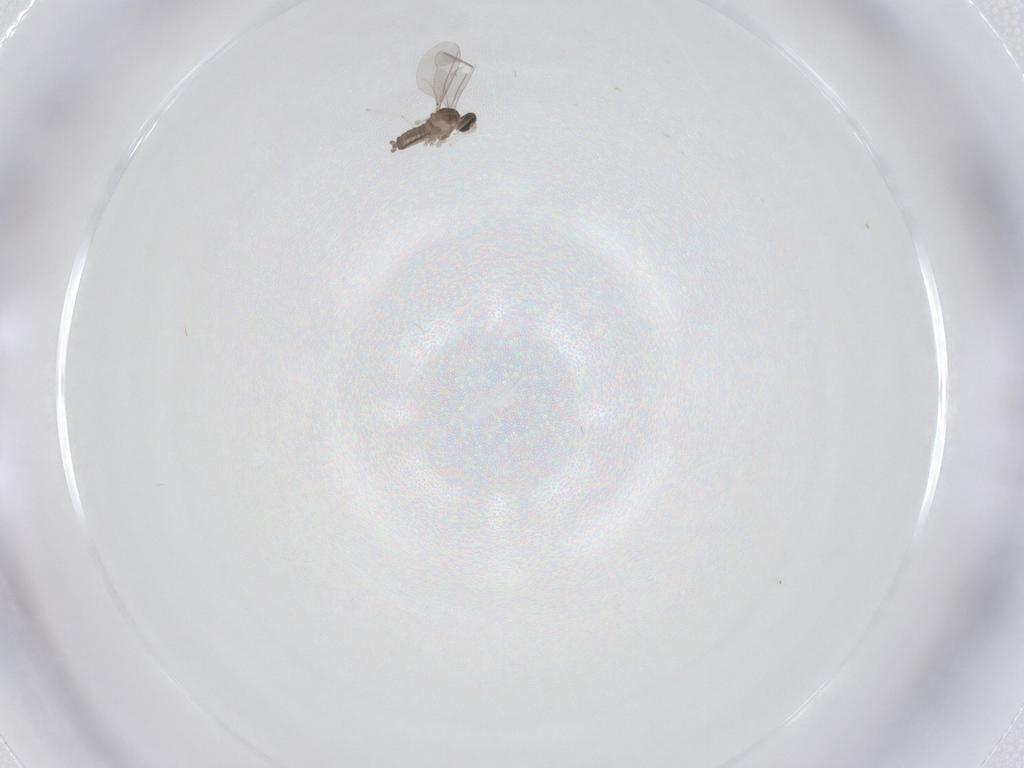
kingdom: Animalia
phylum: Arthropoda
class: Insecta
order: Diptera
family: Cecidomyiidae
